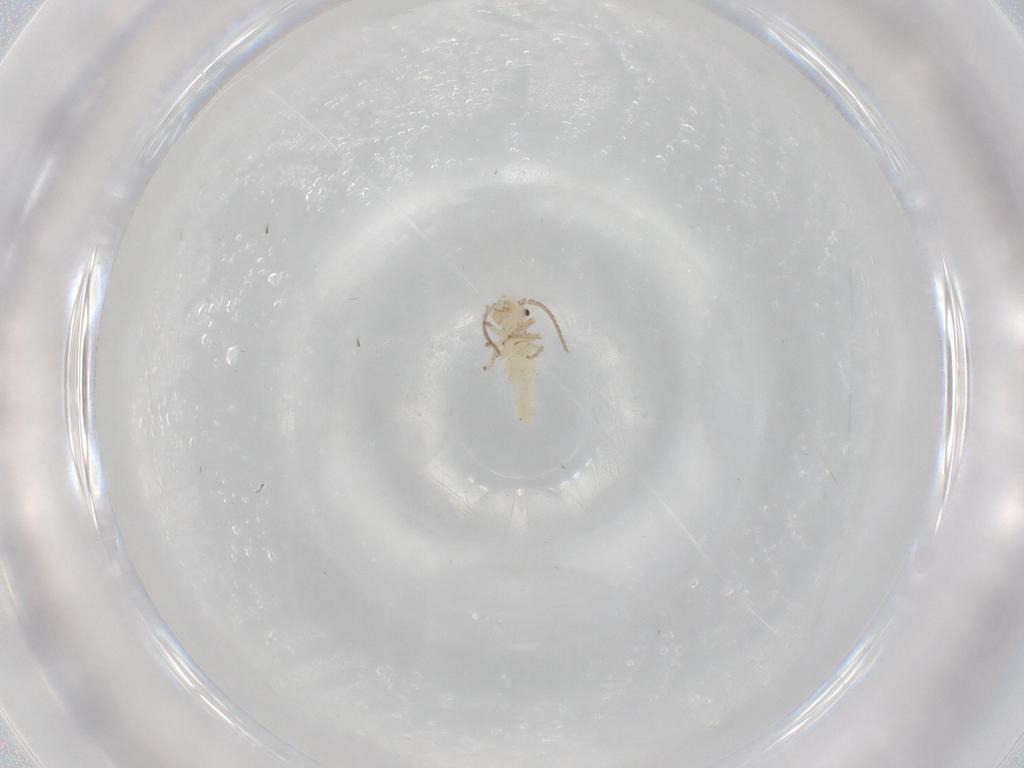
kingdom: Animalia
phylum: Arthropoda
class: Insecta
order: Psocodea
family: Caeciliusidae
